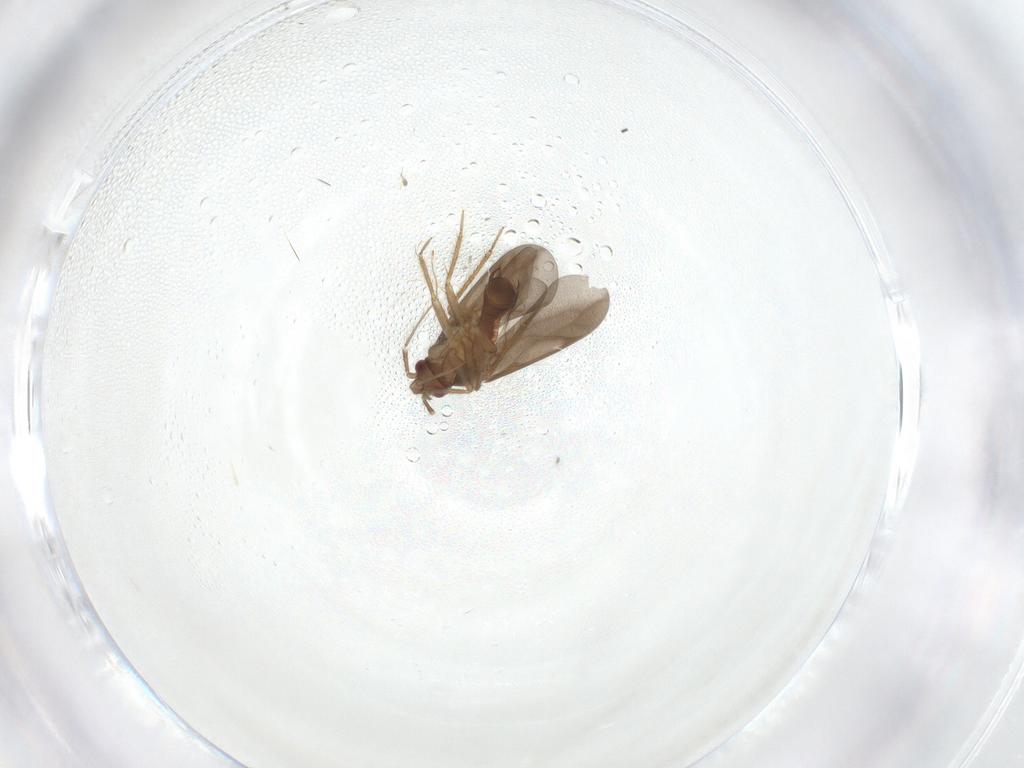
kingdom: Animalia
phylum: Arthropoda
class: Insecta
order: Hemiptera
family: Ceratocombidae
